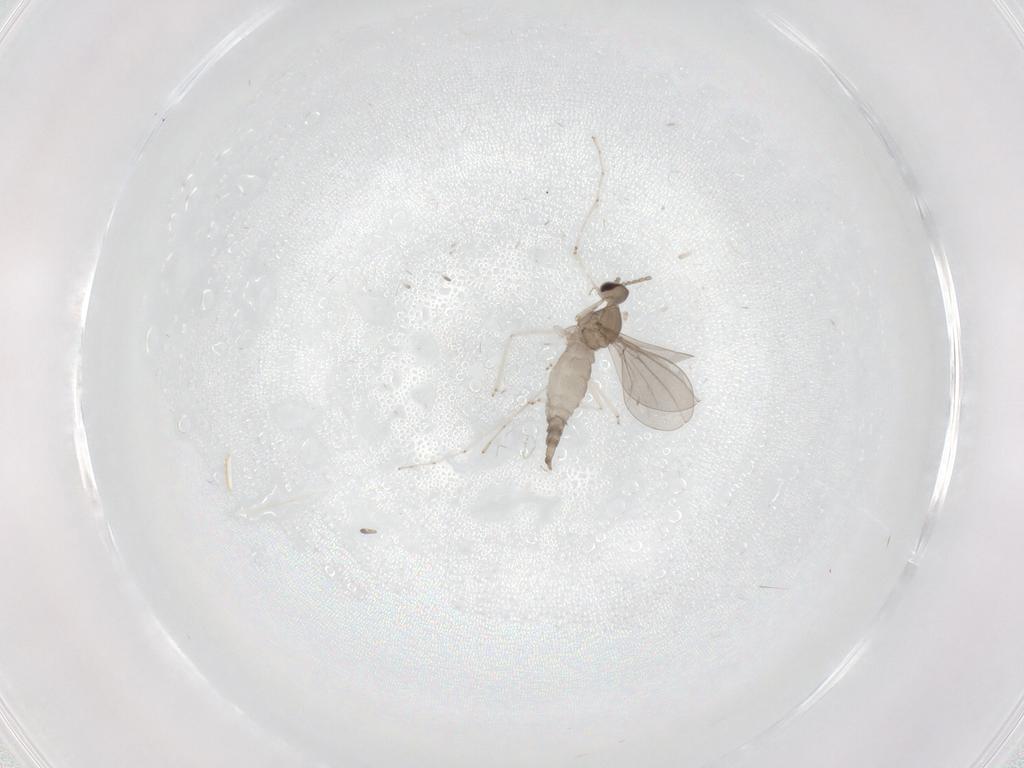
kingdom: Animalia
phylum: Arthropoda
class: Insecta
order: Diptera
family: Cecidomyiidae
